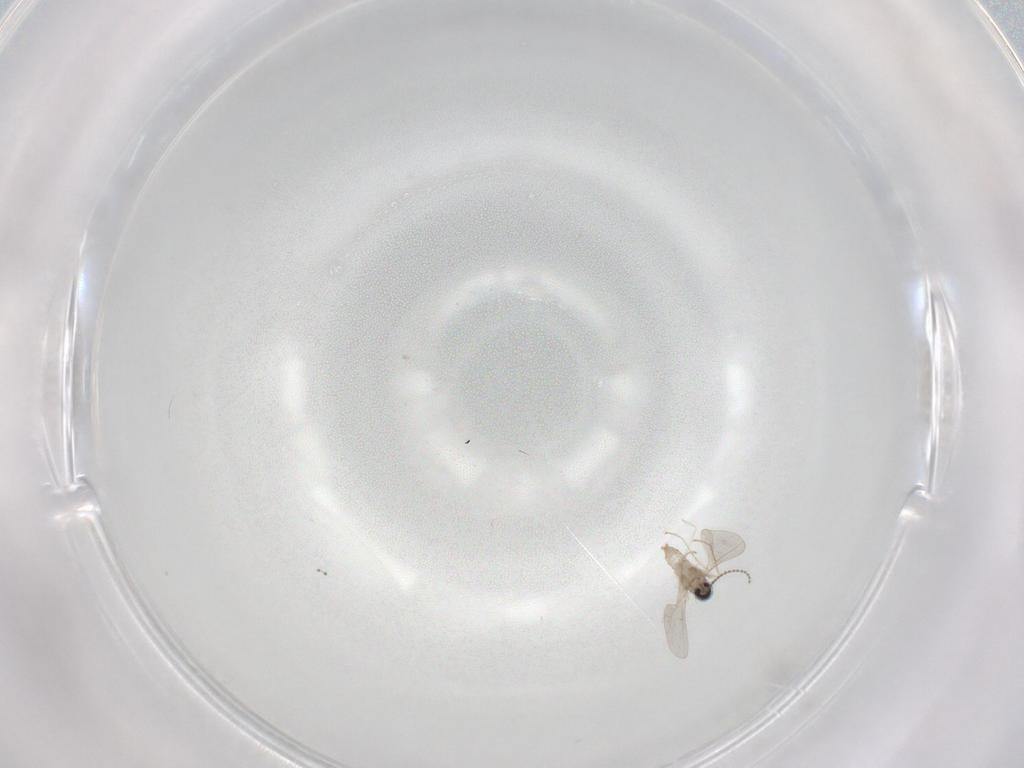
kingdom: Animalia
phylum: Arthropoda
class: Insecta
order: Diptera
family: Cecidomyiidae
